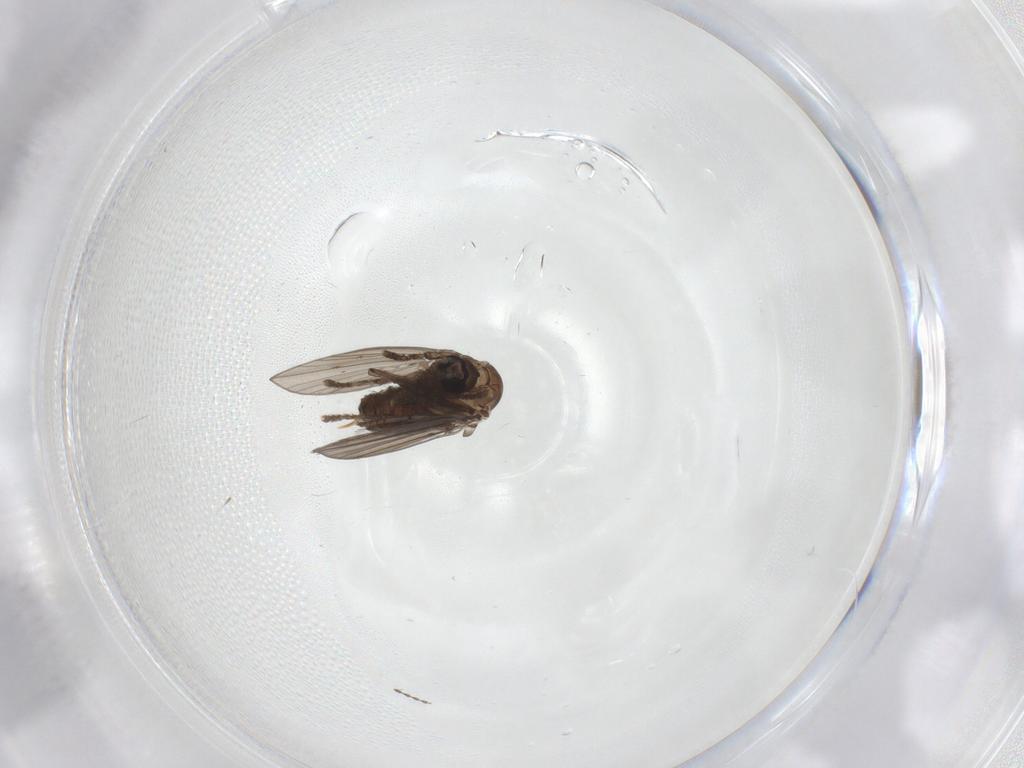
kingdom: Animalia
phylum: Arthropoda
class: Insecta
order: Diptera
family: Psychodidae
